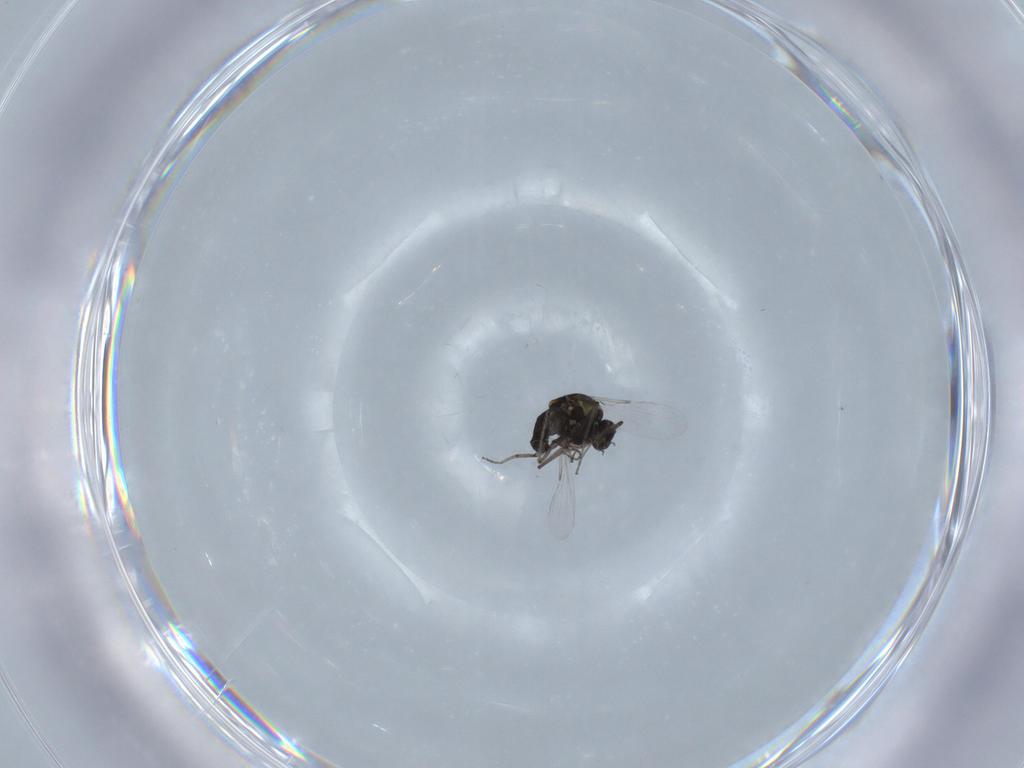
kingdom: Animalia
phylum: Arthropoda
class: Insecta
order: Diptera
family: Ceratopogonidae
